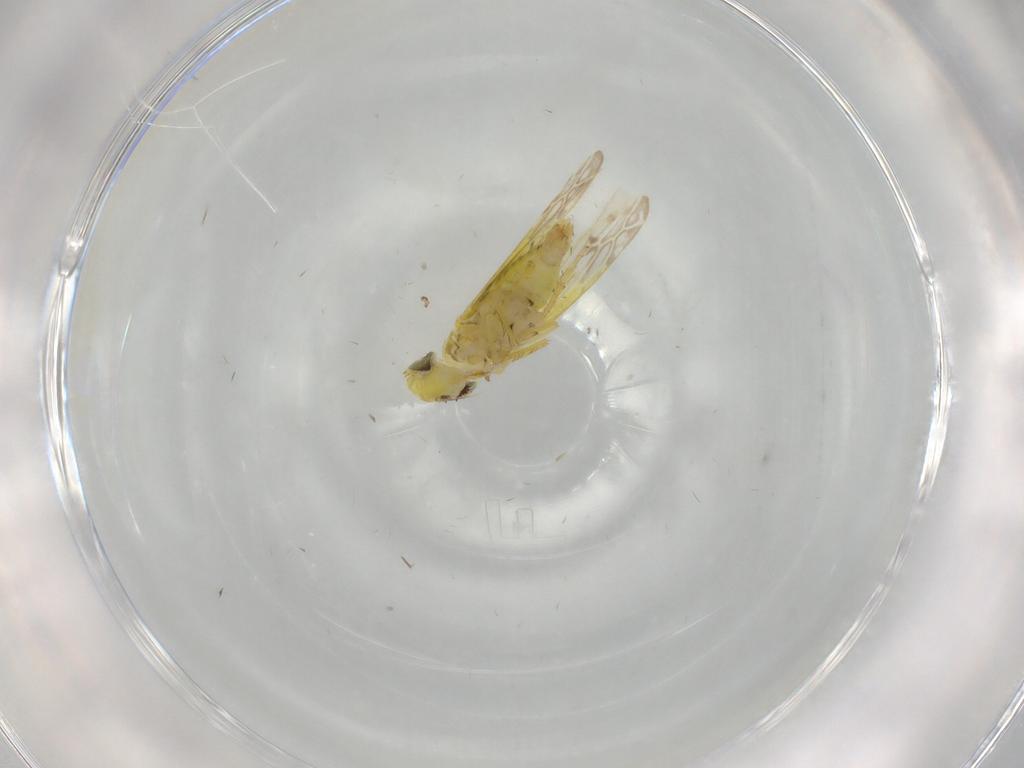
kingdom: Animalia
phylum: Arthropoda
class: Insecta
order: Hemiptera
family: Cicadellidae
